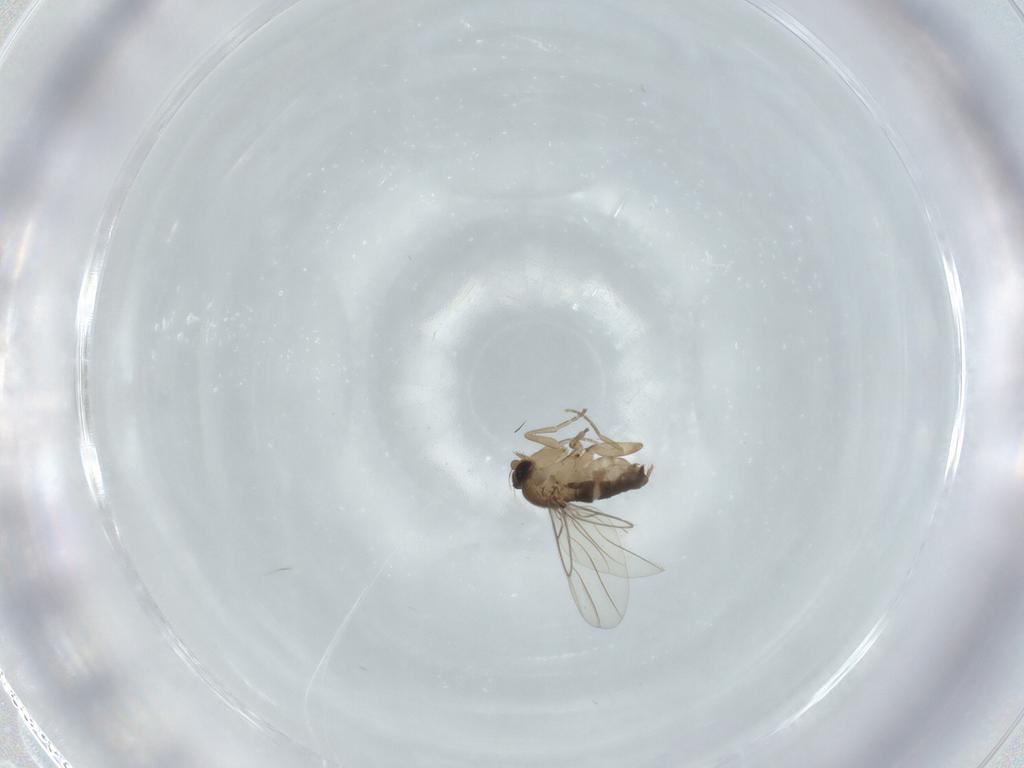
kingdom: Animalia
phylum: Arthropoda
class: Insecta
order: Diptera
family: Phoridae
